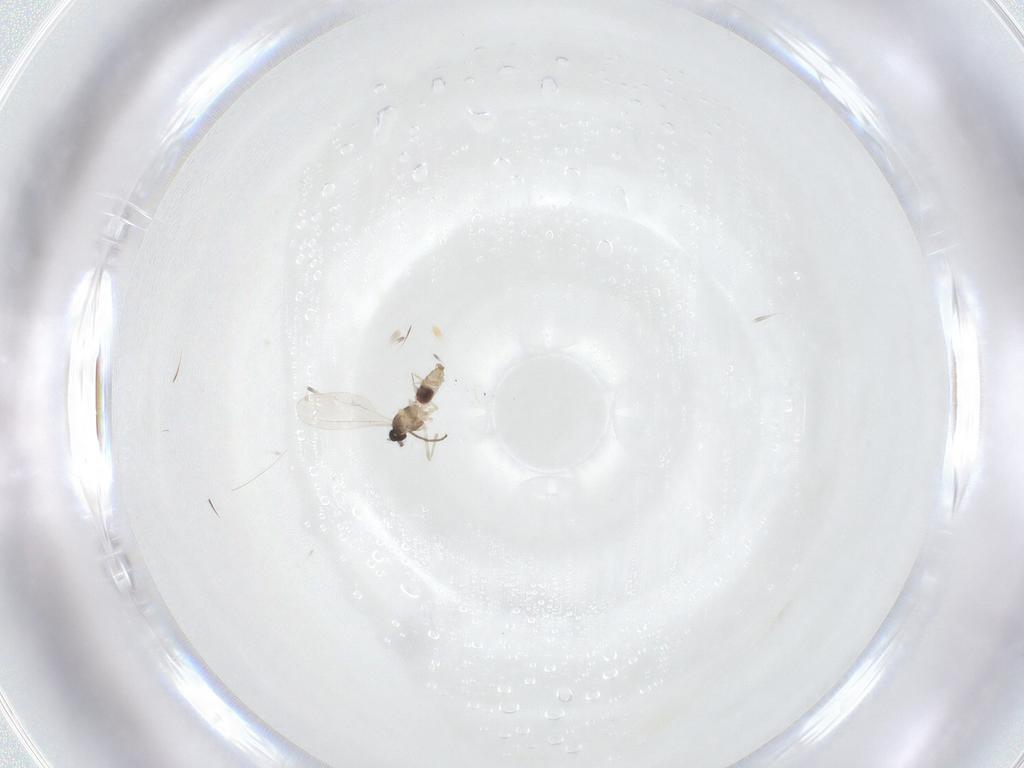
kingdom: Animalia
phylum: Arthropoda
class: Insecta
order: Diptera
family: Cecidomyiidae
